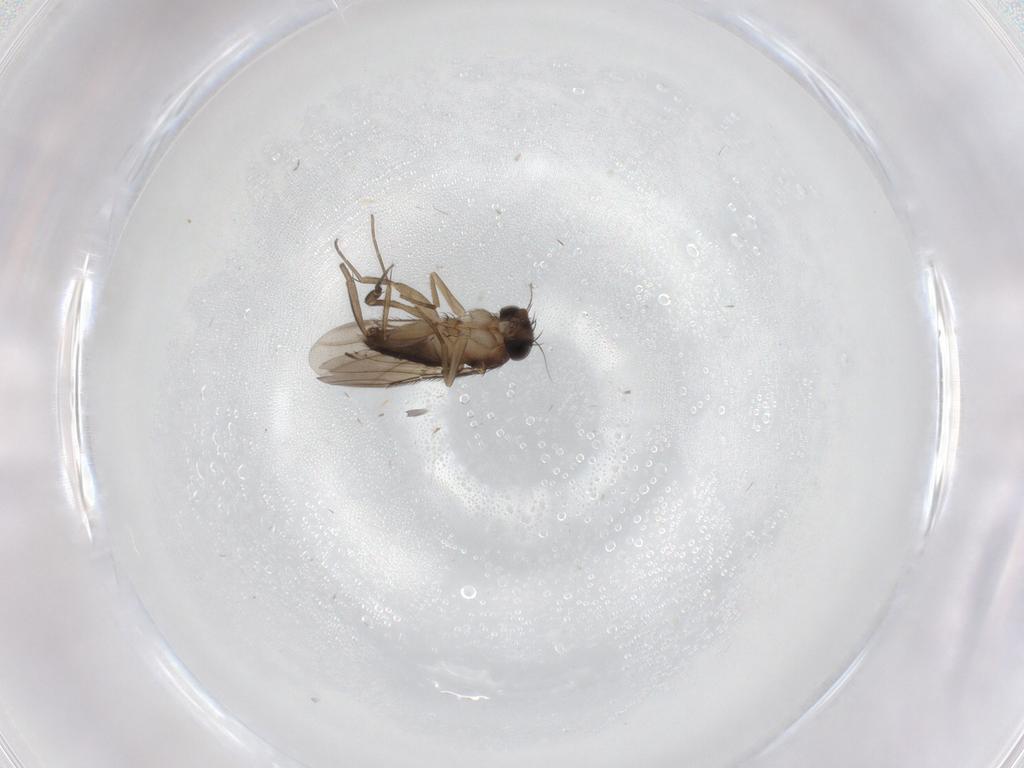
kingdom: Animalia
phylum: Arthropoda
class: Insecta
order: Diptera
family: Phoridae
